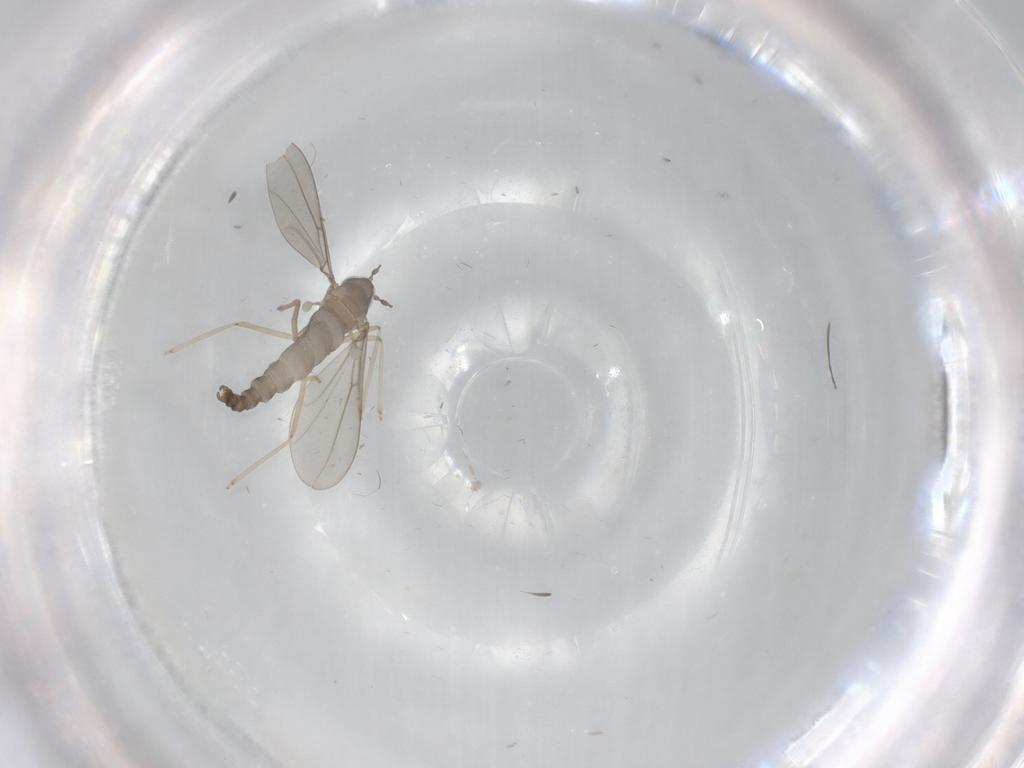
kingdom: Animalia
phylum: Arthropoda
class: Insecta
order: Diptera
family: Cecidomyiidae
